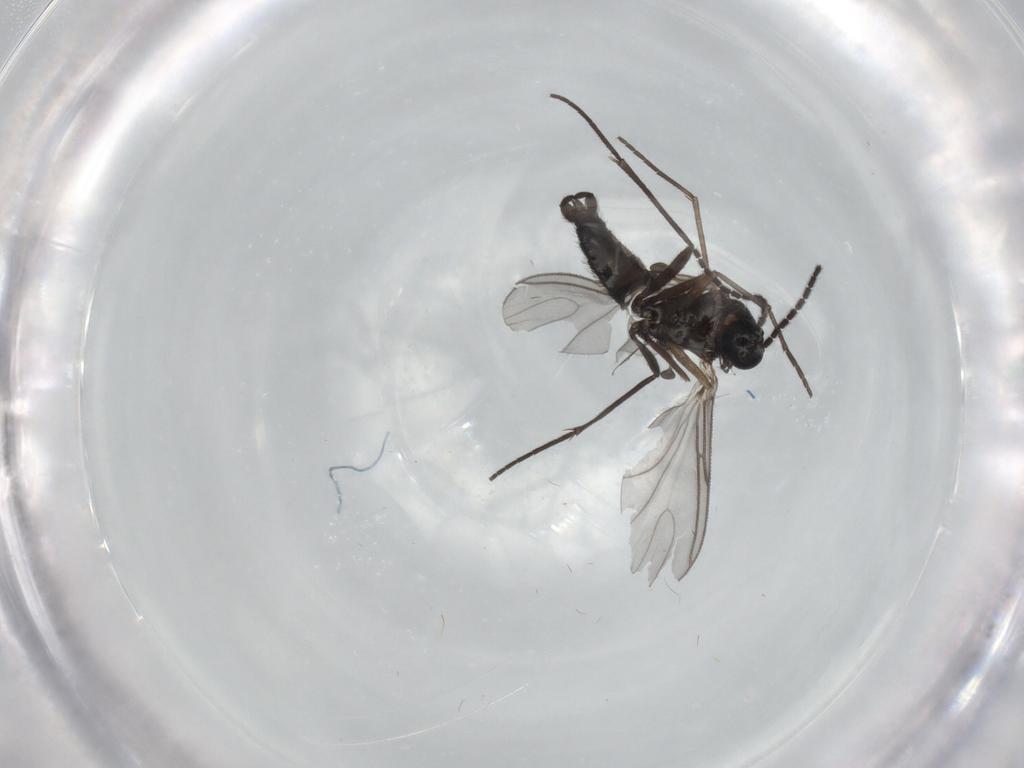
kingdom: Animalia
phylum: Arthropoda
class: Insecta
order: Diptera
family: Sciaridae
